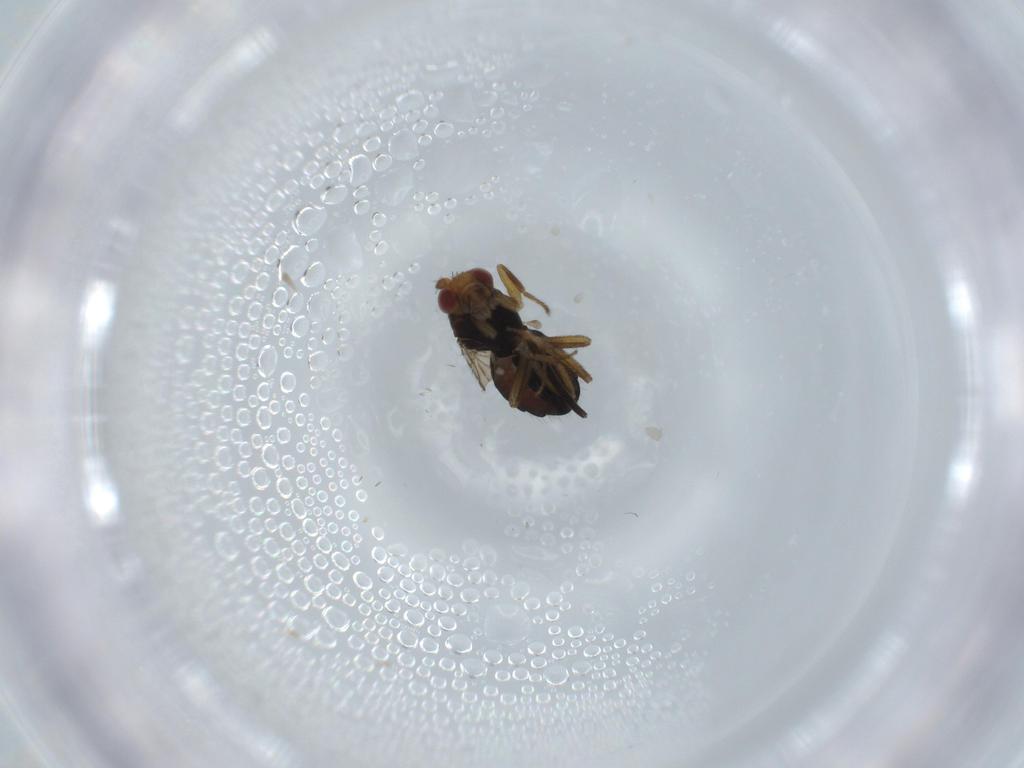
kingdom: Animalia
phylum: Arthropoda
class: Insecta
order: Diptera
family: Sphaeroceridae
